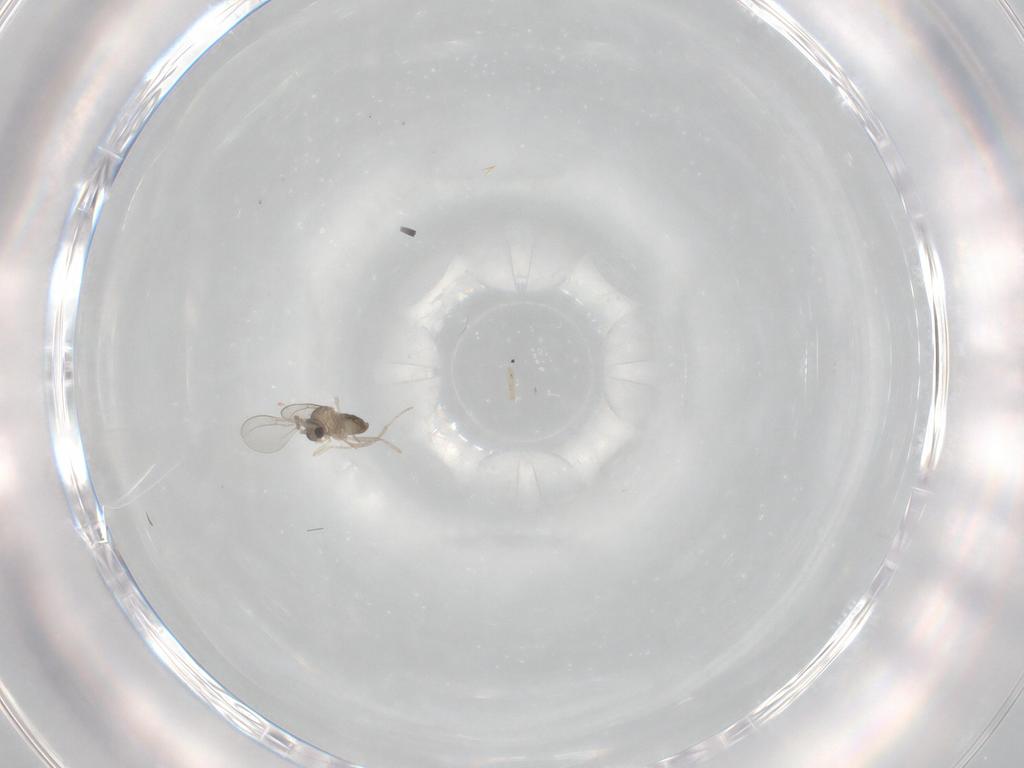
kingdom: Animalia
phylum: Arthropoda
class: Insecta
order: Diptera
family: Cecidomyiidae
